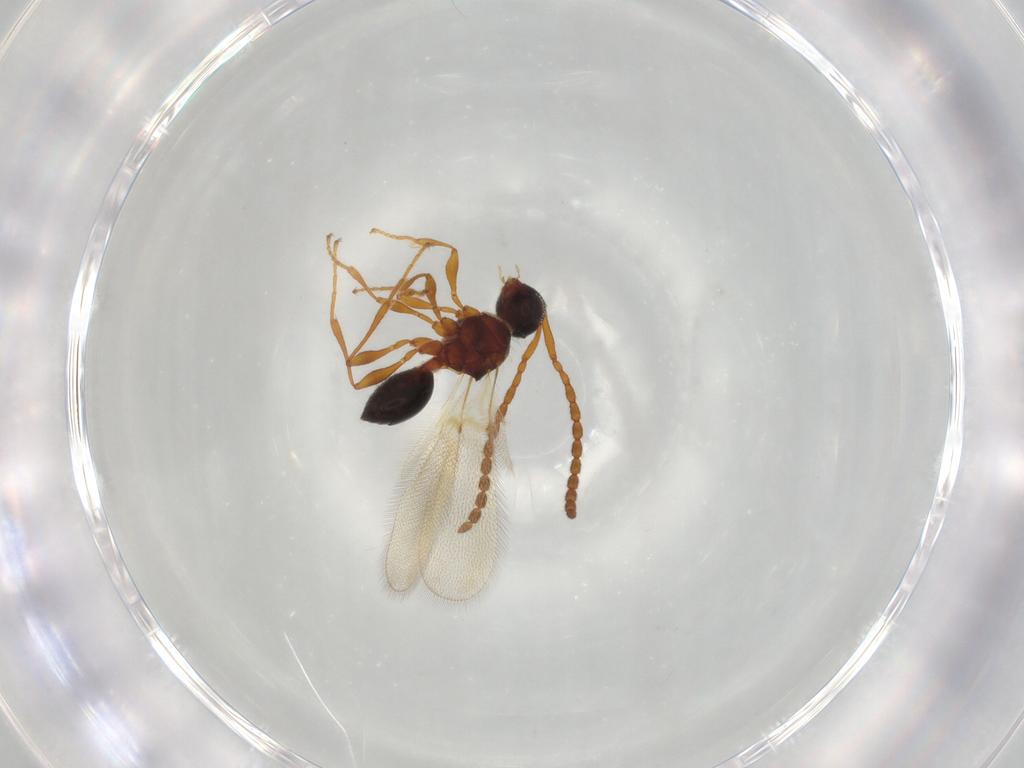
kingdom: Animalia
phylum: Arthropoda
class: Insecta
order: Hymenoptera
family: Diapriidae
